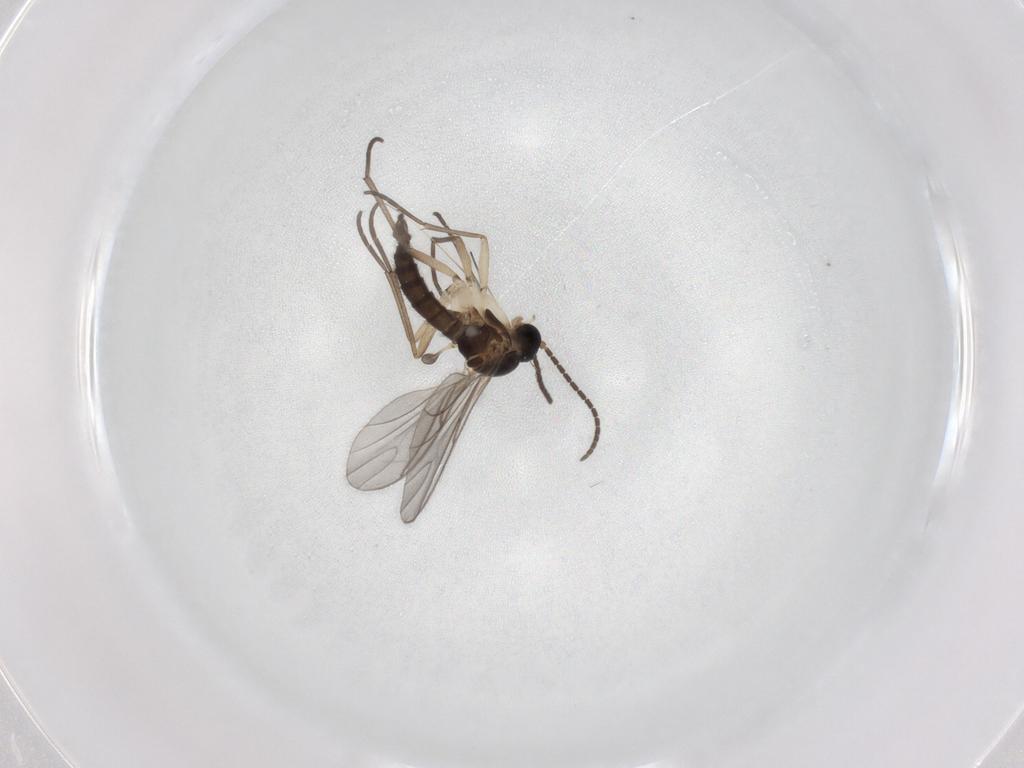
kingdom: Animalia
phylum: Arthropoda
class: Insecta
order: Diptera
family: Sciaridae
